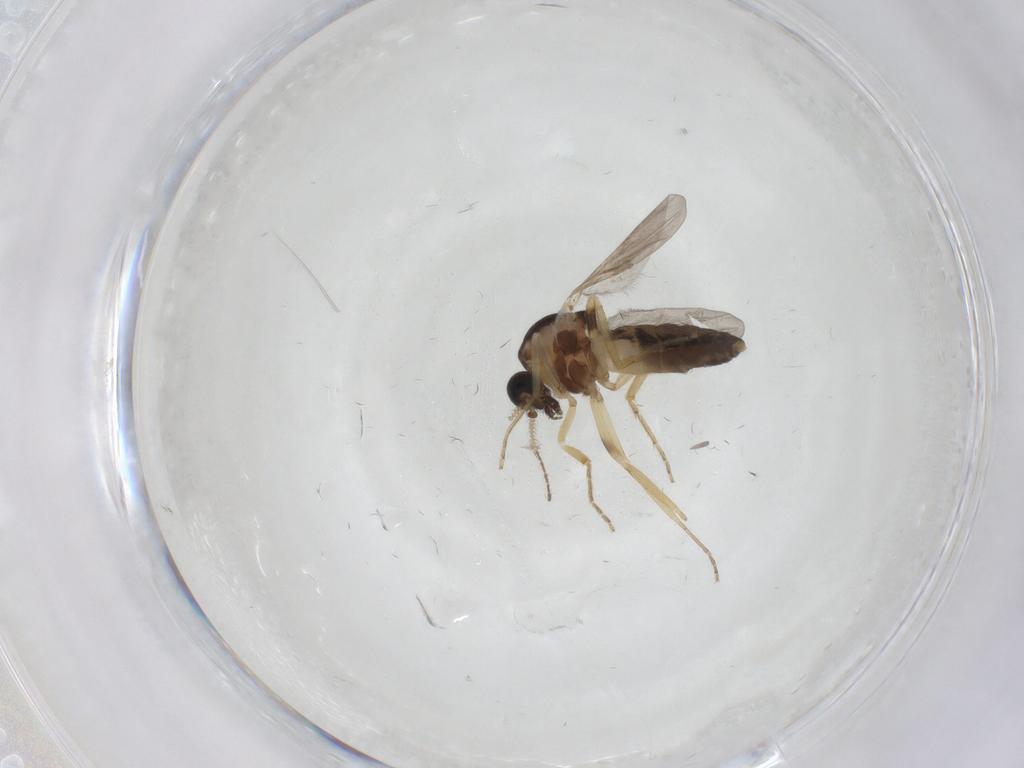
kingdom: Animalia
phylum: Arthropoda
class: Insecta
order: Diptera
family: Ceratopogonidae
